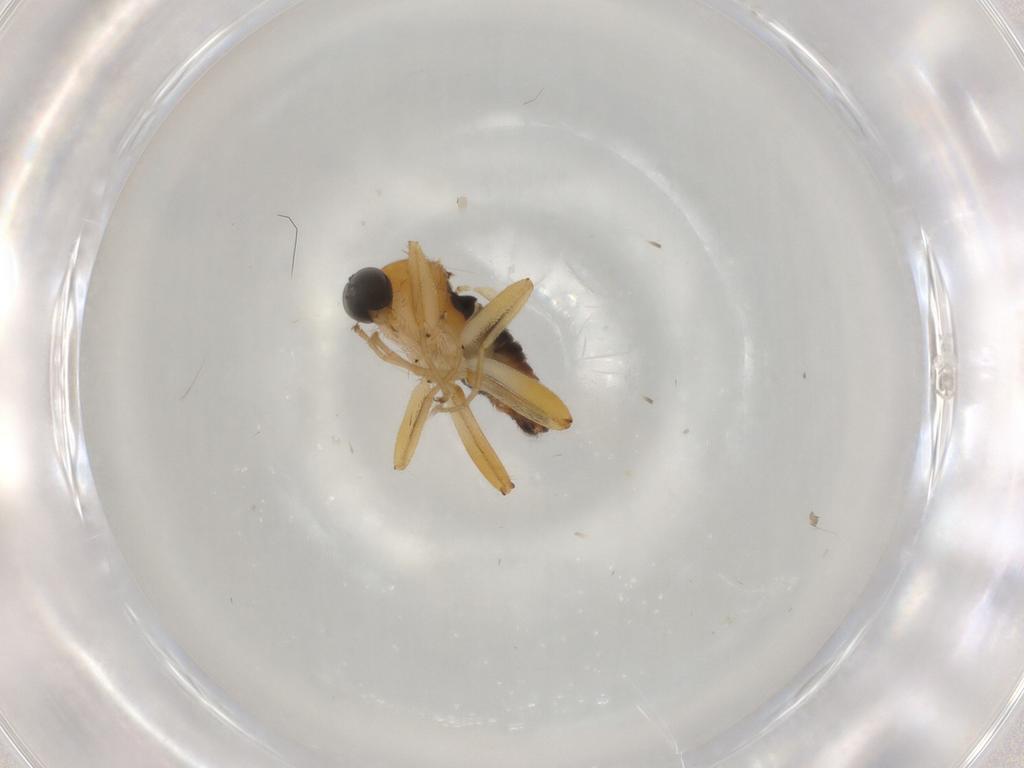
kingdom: Animalia
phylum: Arthropoda
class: Insecta
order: Diptera
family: Hybotidae
